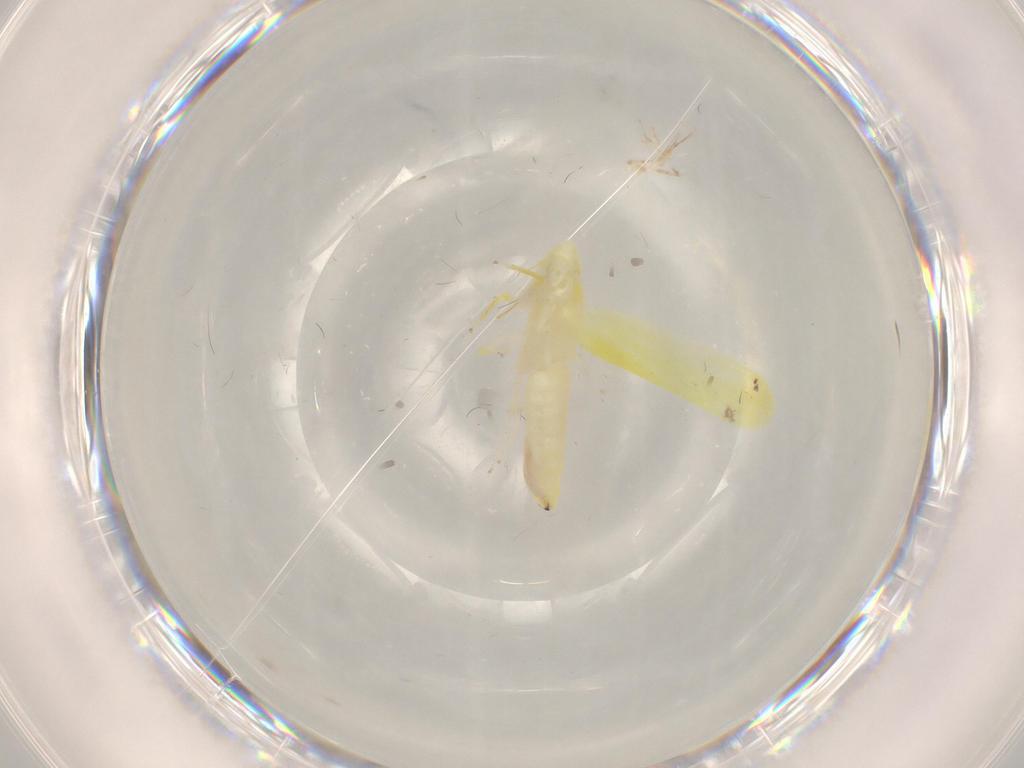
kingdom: Animalia
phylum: Arthropoda
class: Insecta
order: Hemiptera
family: Cicadellidae
